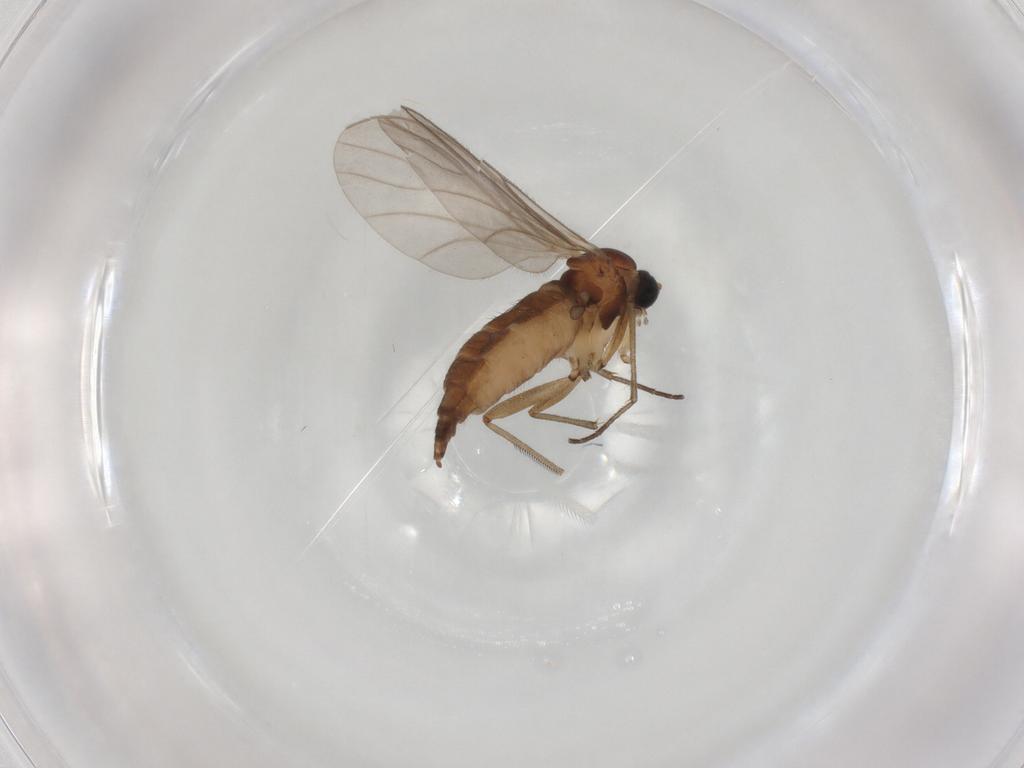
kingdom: Animalia
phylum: Arthropoda
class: Insecta
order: Diptera
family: Sciaridae
